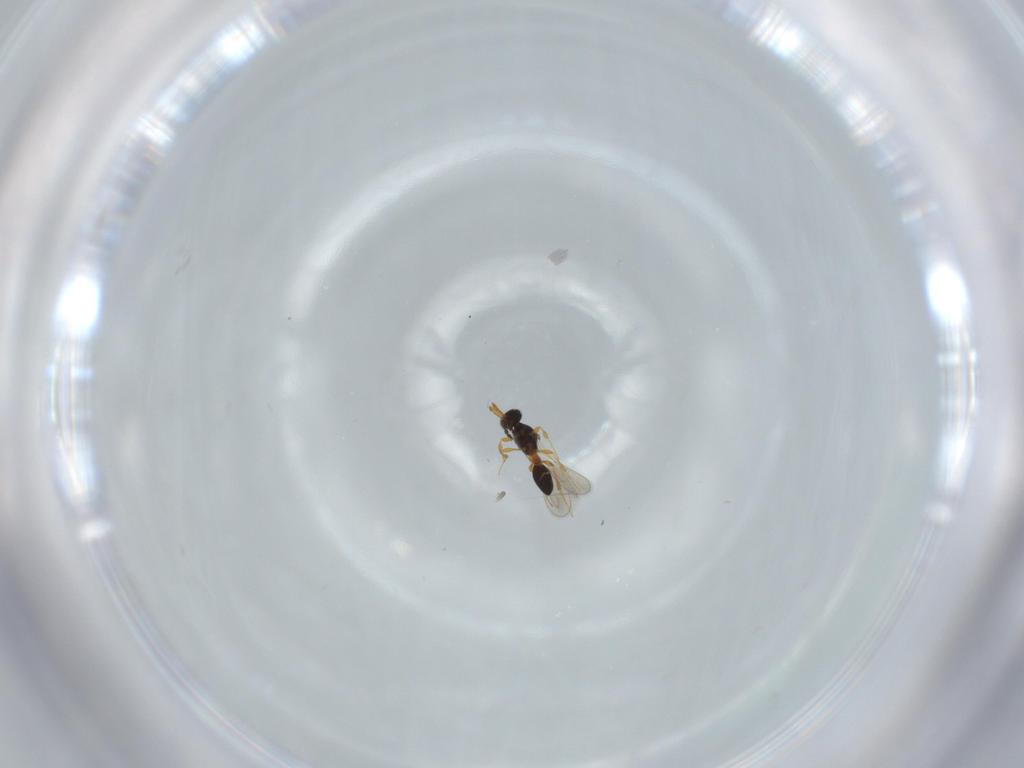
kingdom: Animalia
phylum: Arthropoda
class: Insecta
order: Hymenoptera
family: Platygastridae
